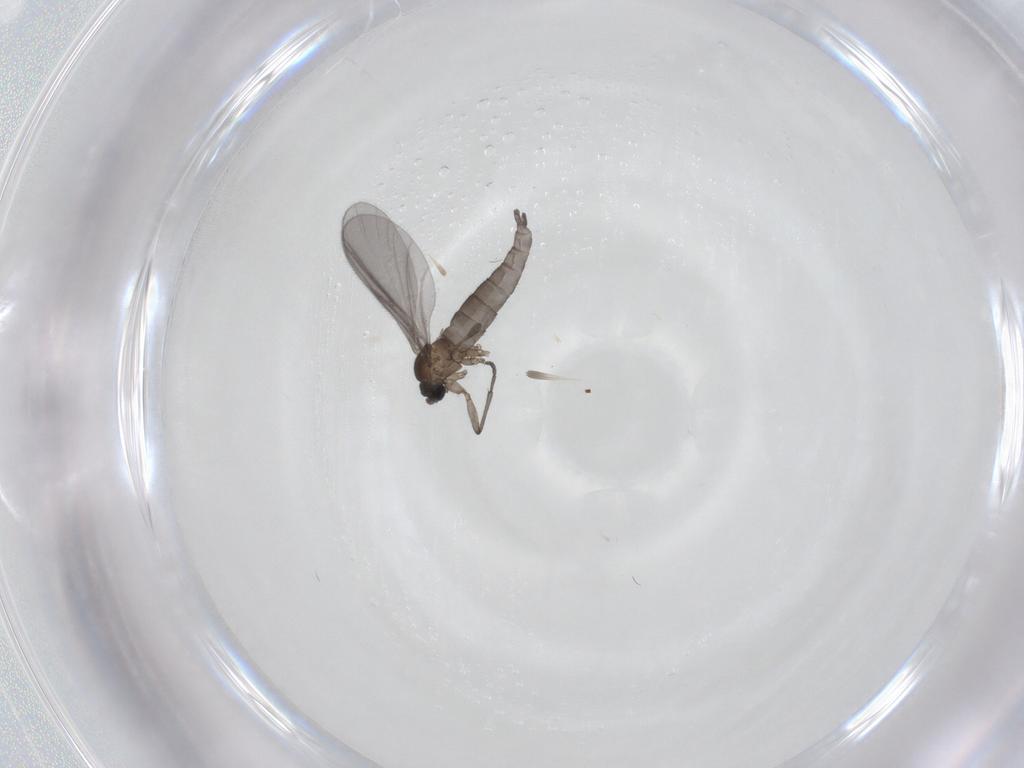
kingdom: Animalia
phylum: Arthropoda
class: Insecta
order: Diptera
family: Sciaridae
